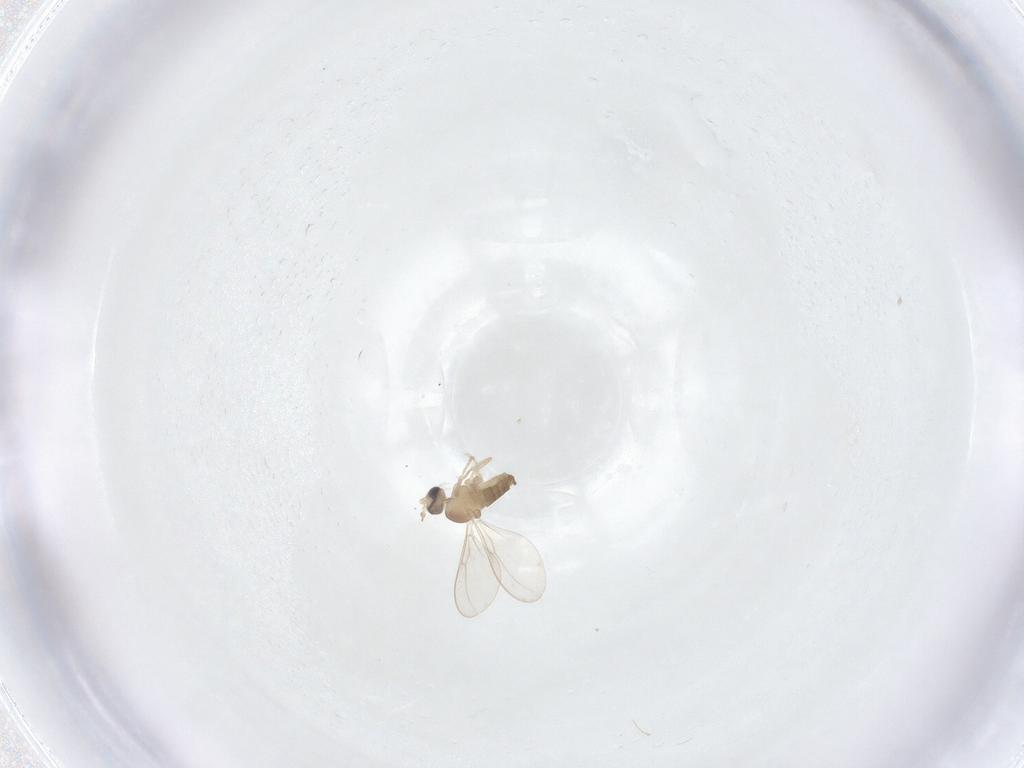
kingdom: Animalia
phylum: Arthropoda
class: Insecta
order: Diptera
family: Cecidomyiidae
